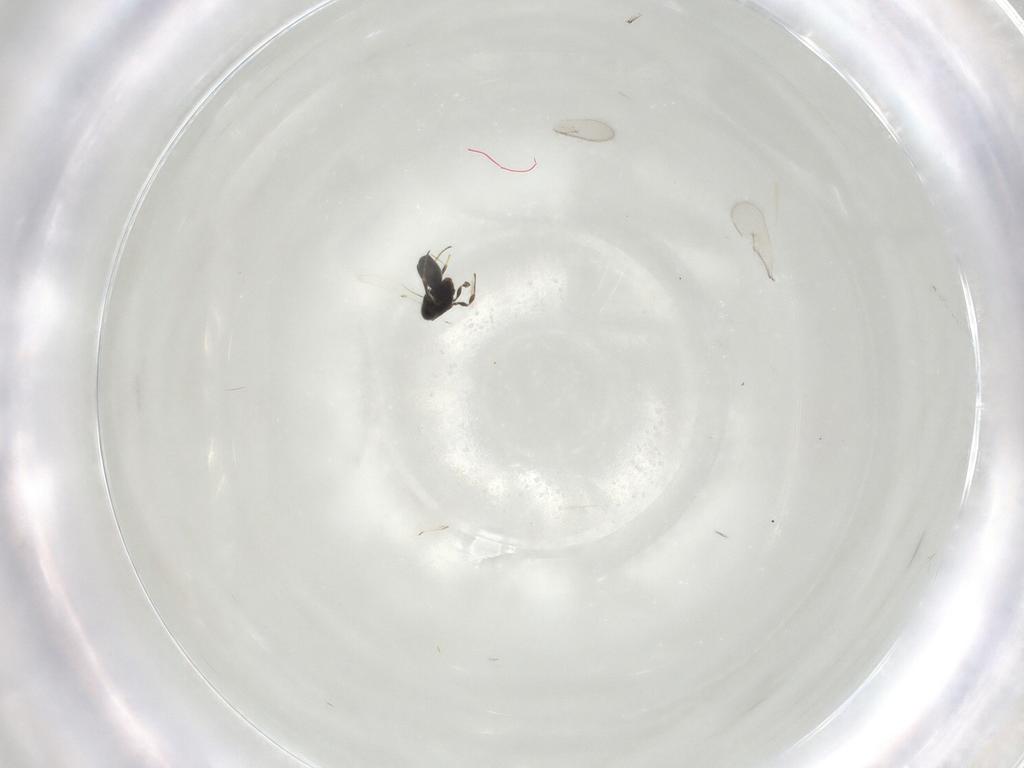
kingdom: Animalia
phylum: Arthropoda
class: Insecta
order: Hymenoptera
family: Scelionidae
